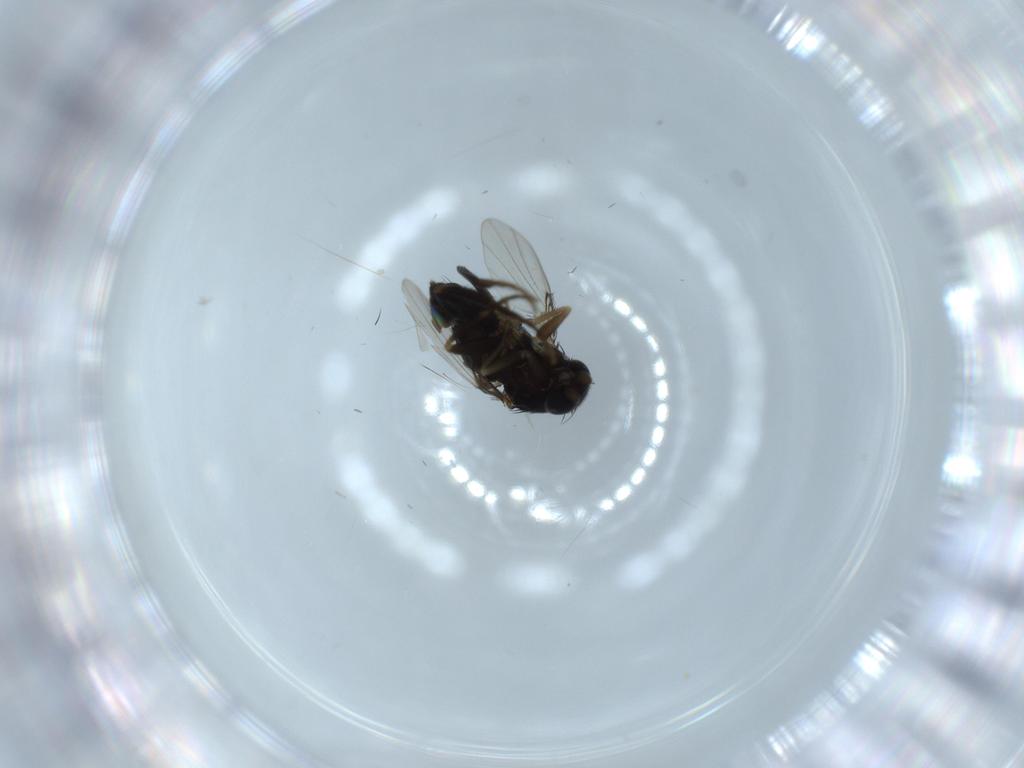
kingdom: Animalia
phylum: Arthropoda
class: Insecta
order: Diptera
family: Phoridae
